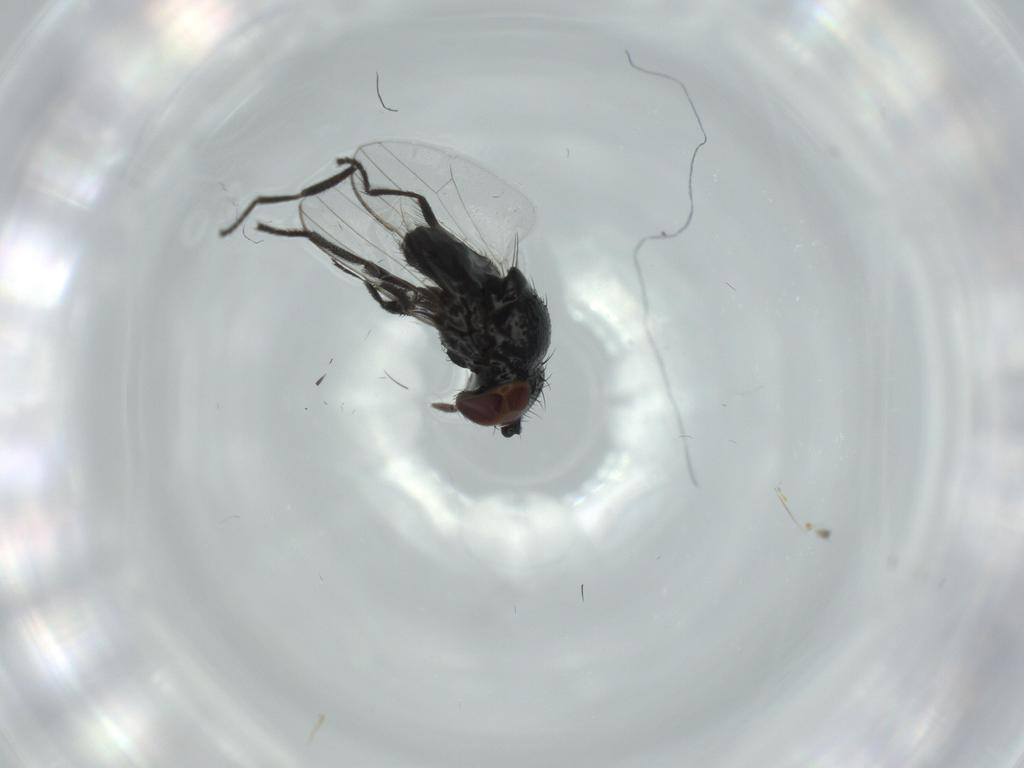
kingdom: Animalia
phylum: Arthropoda
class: Insecta
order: Diptera
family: Milichiidae
